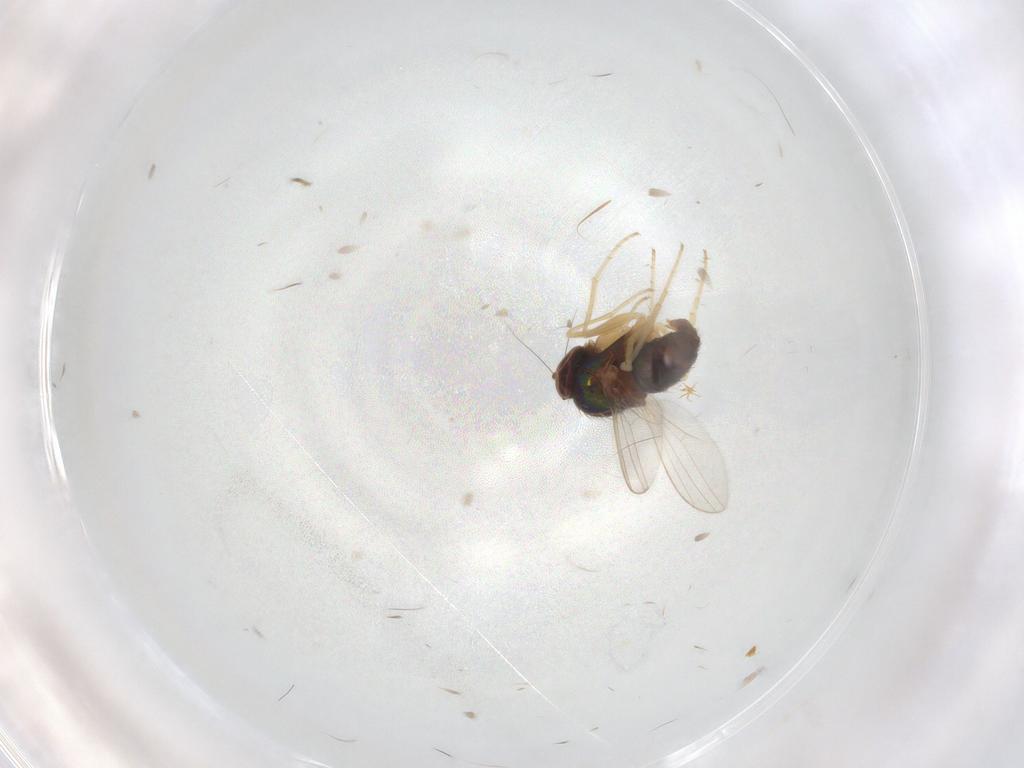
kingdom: Animalia
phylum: Arthropoda
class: Insecta
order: Diptera
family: Dolichopodidae
